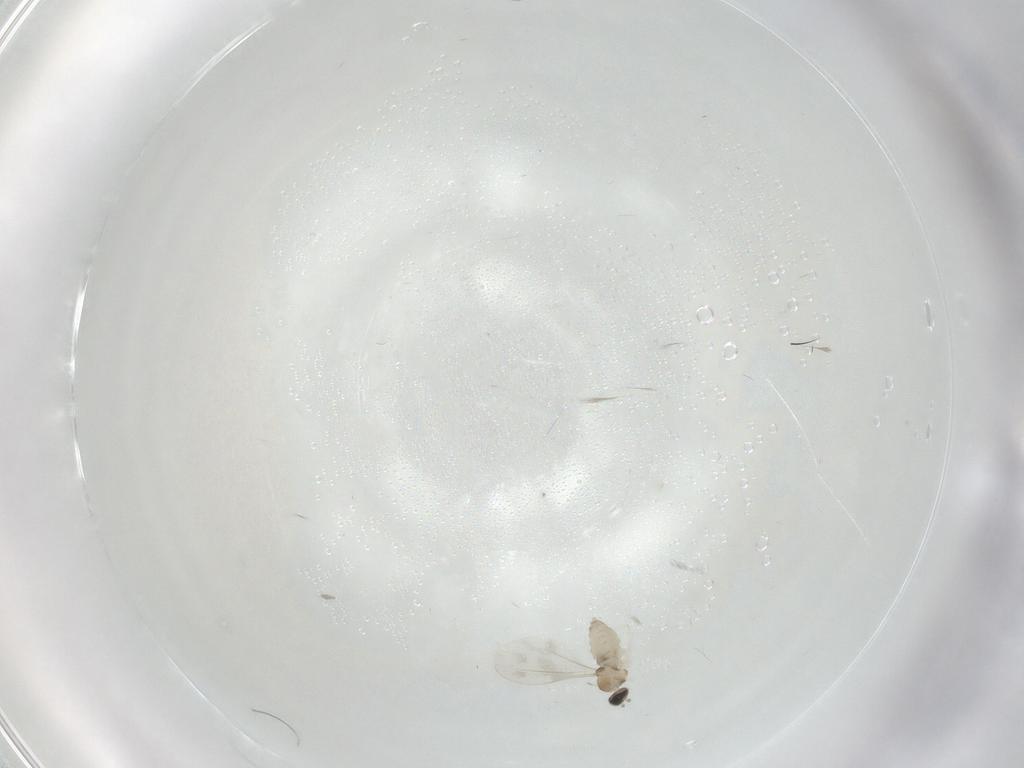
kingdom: Animalia
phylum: Arthropoda
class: Insecta
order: Diptera
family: Cecidomyiidae
